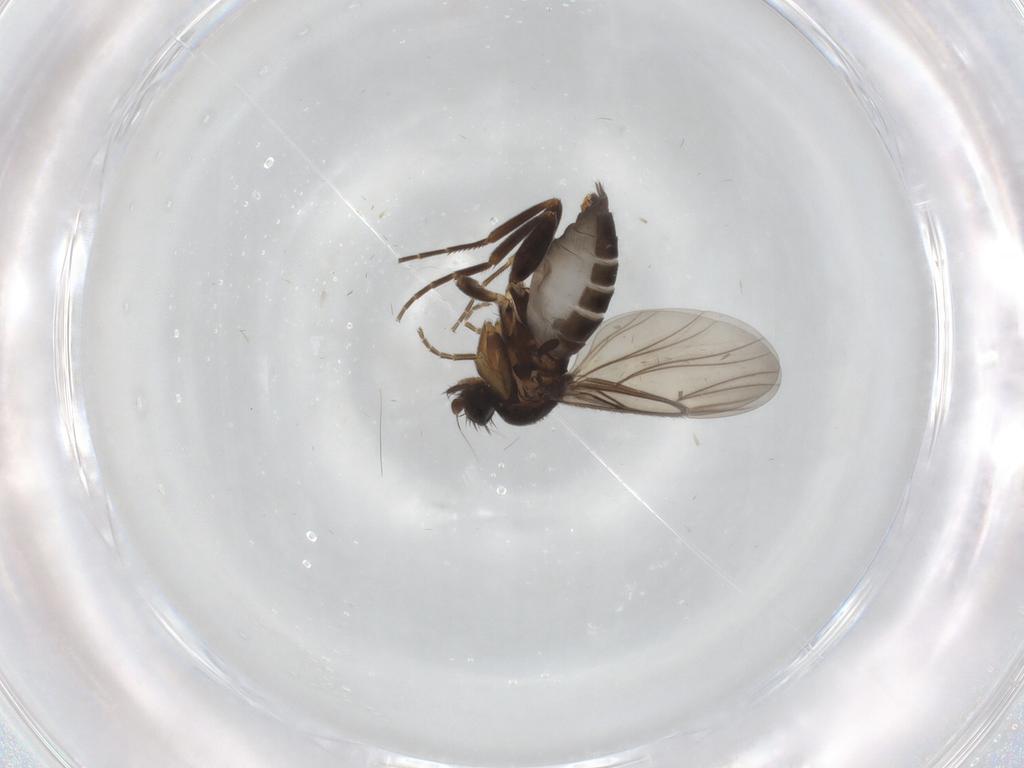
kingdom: Animalia
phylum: Arthropoda
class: Insecta
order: Diptera
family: Phoridae
